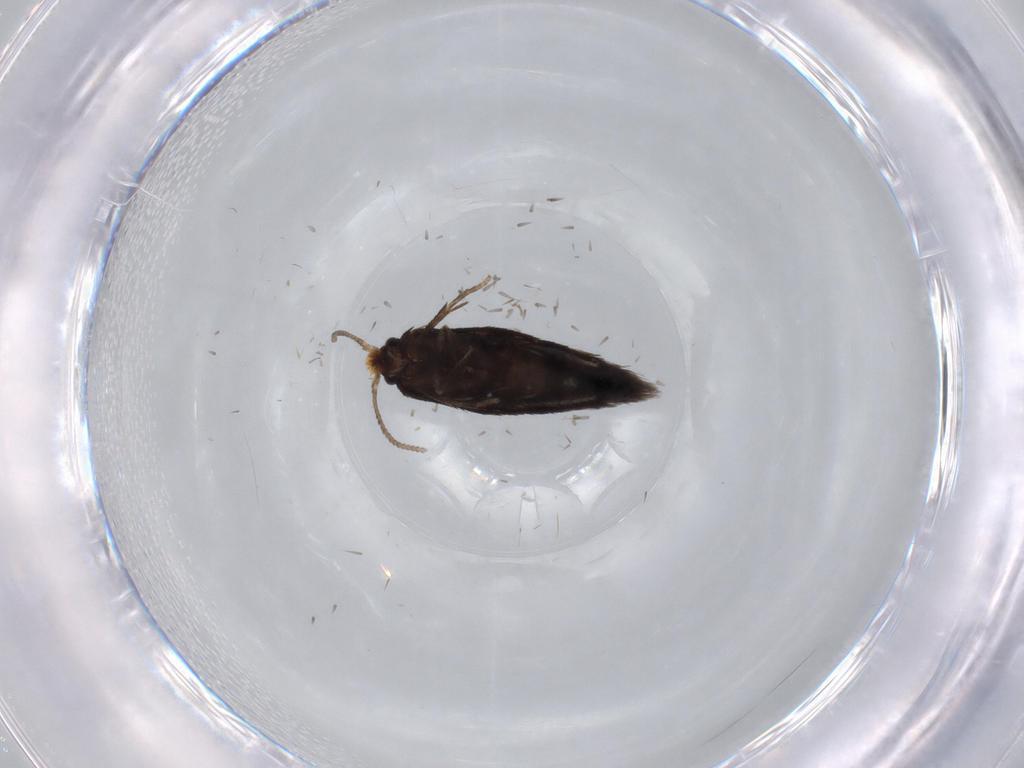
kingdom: Animalia
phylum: Arthropoda
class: Insecta
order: Lepidoptera
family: Nepticulidae
